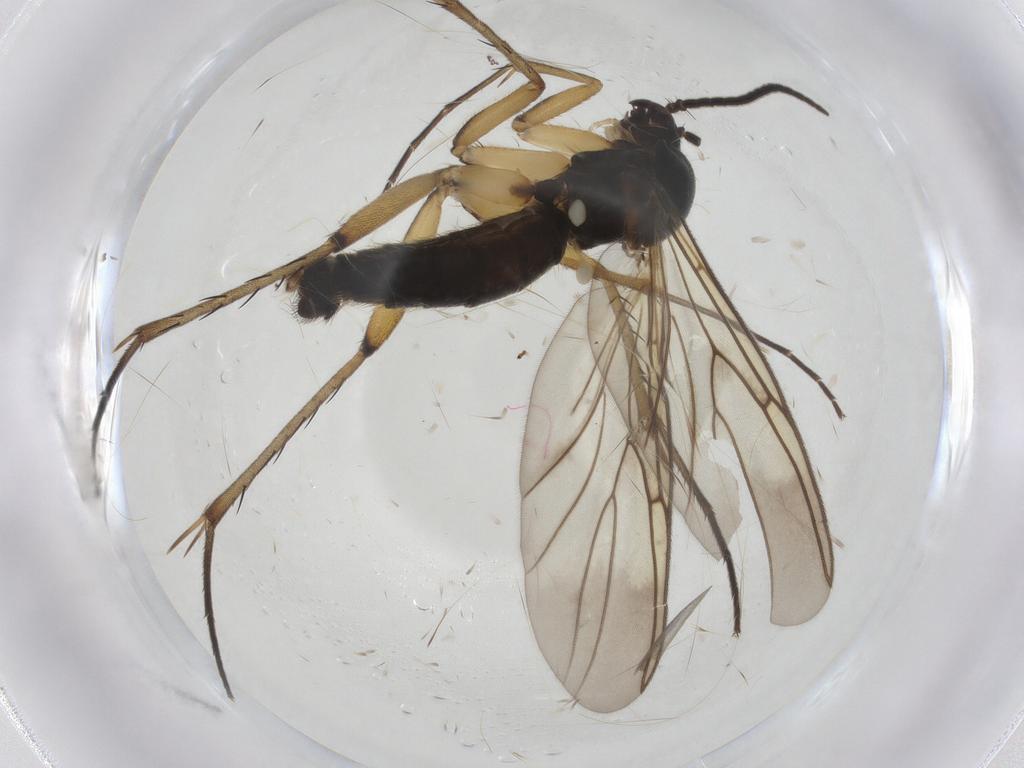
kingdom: Animalia
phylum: Arthropoda
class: Insecta
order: Diptera
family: Mycetophilidae
